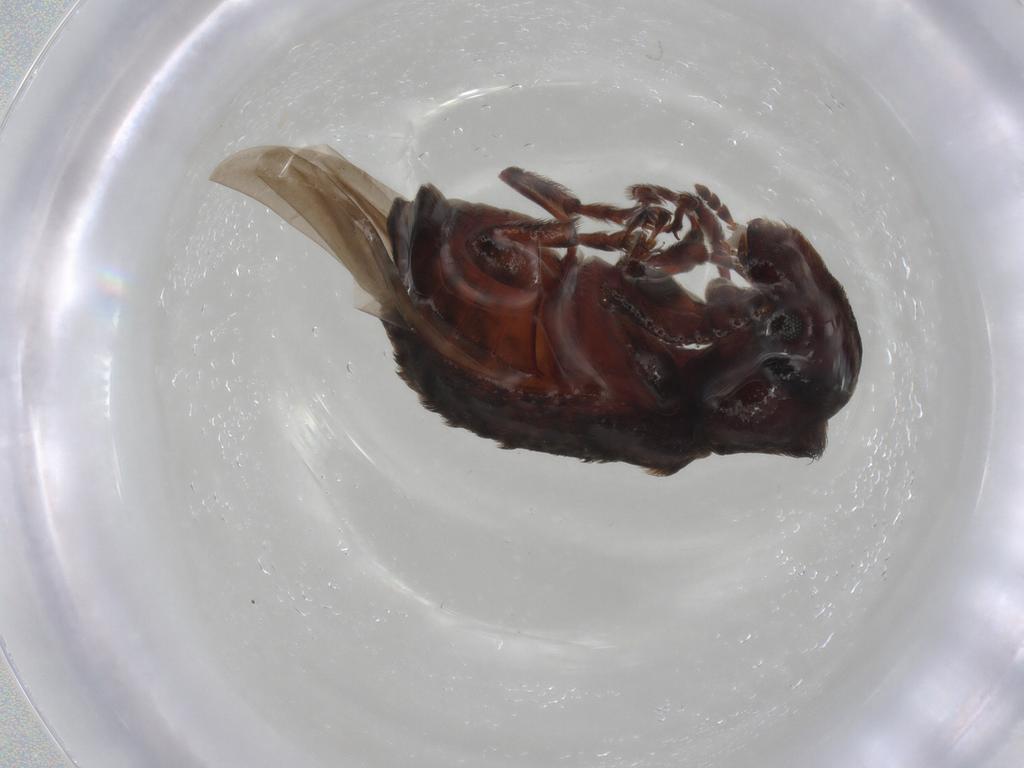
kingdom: Animalia
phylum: Arthropoda
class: Insecta
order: Coleoptera
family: Anthribidae
